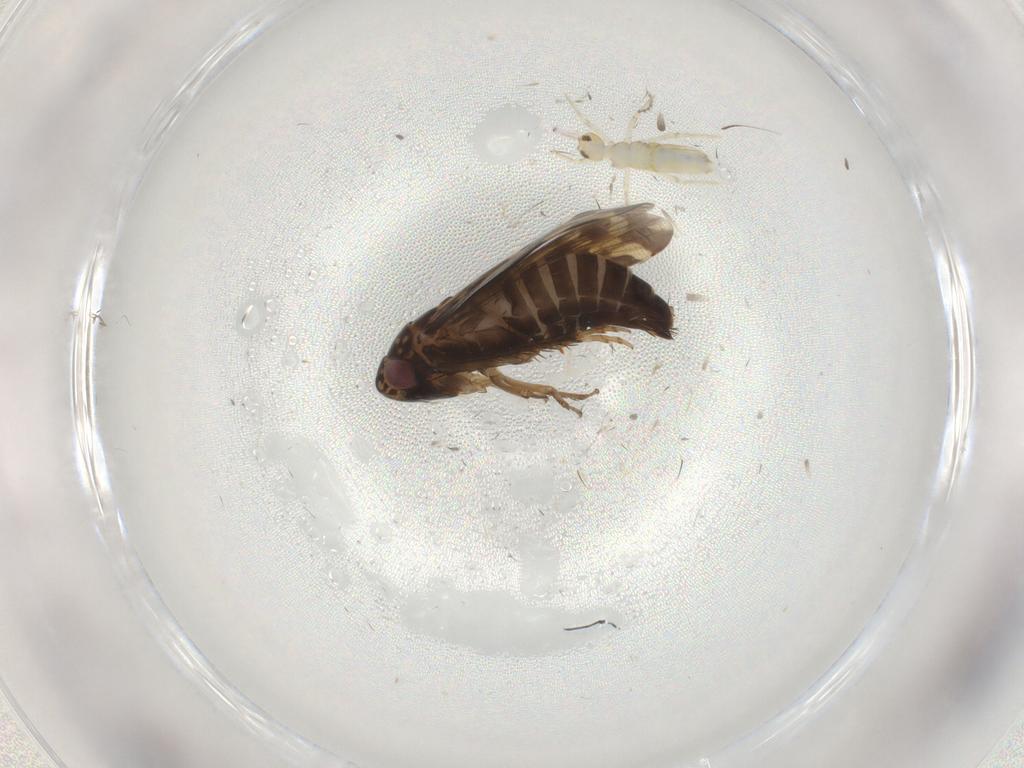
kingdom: Animalia
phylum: Arthropoda
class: Insecta
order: Hemiptera
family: Cicadellidae
